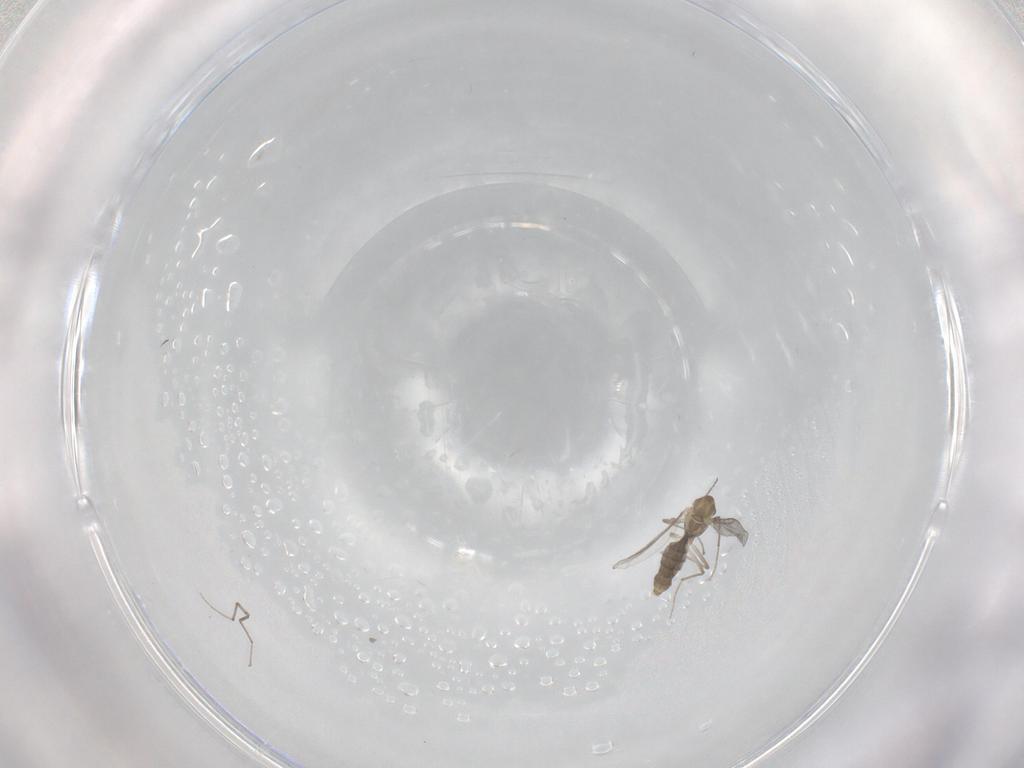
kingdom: Animalia
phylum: Arthropoda
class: Insecta
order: Diptera
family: Chironomidae
